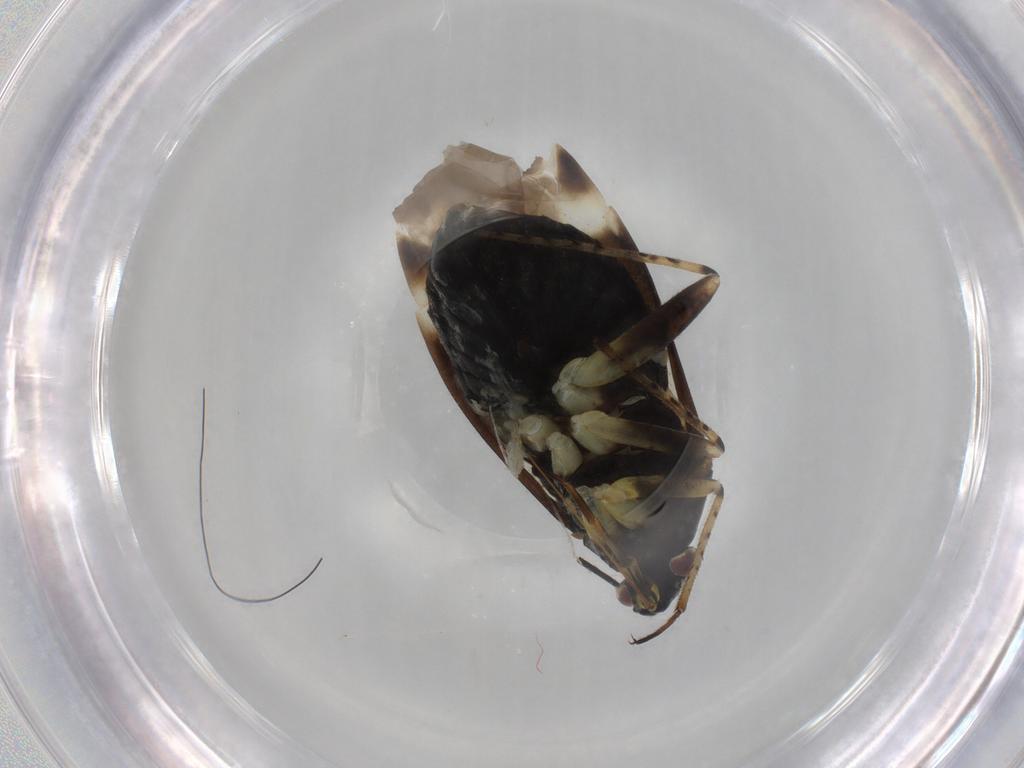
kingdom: Animalia
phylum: Arthropoda
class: Insecta
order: Hemiptera
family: Miridae
